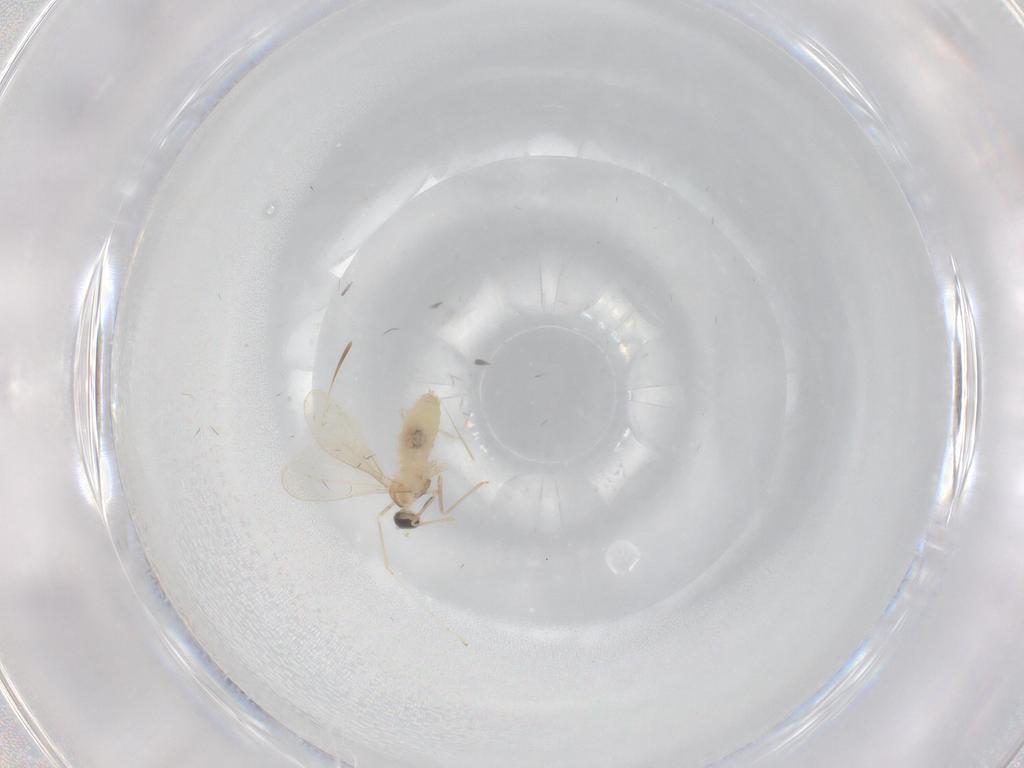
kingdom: Animalia
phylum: Arthropoda
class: Insecta
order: Diptera
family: Cecidomyiidae
